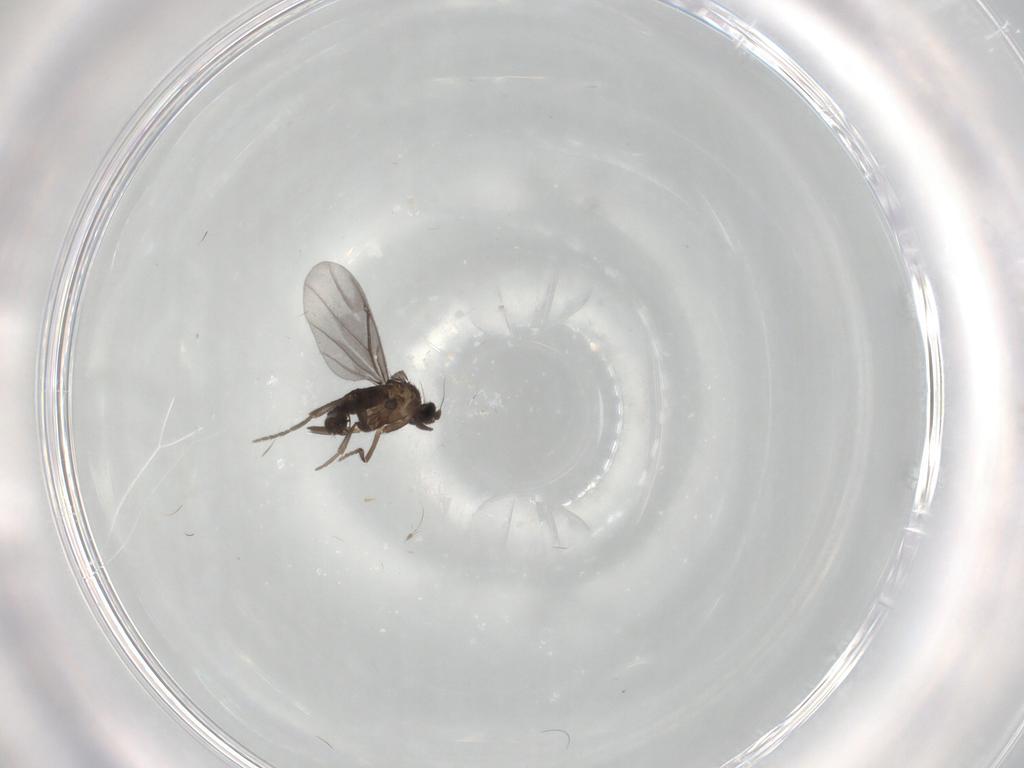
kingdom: Animalia
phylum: Arthropoda
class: Insecta
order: Diptera
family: Phoridae
